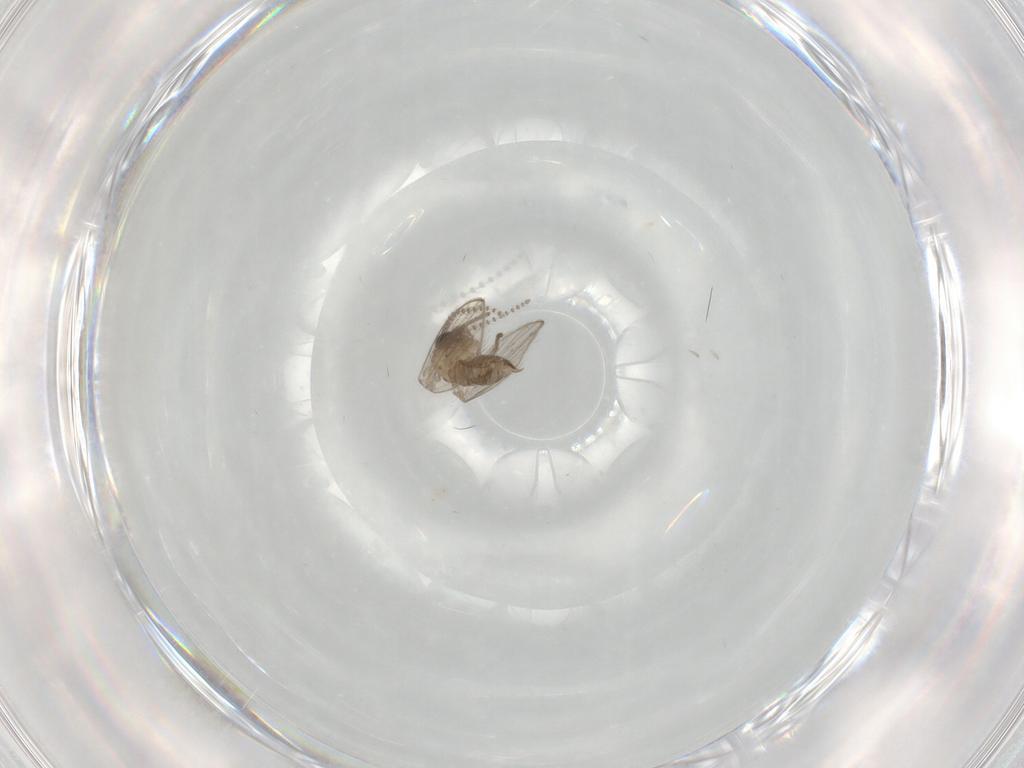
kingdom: Animalia
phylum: Arthropoda
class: Insecta
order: Diptera
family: Psychodidae
